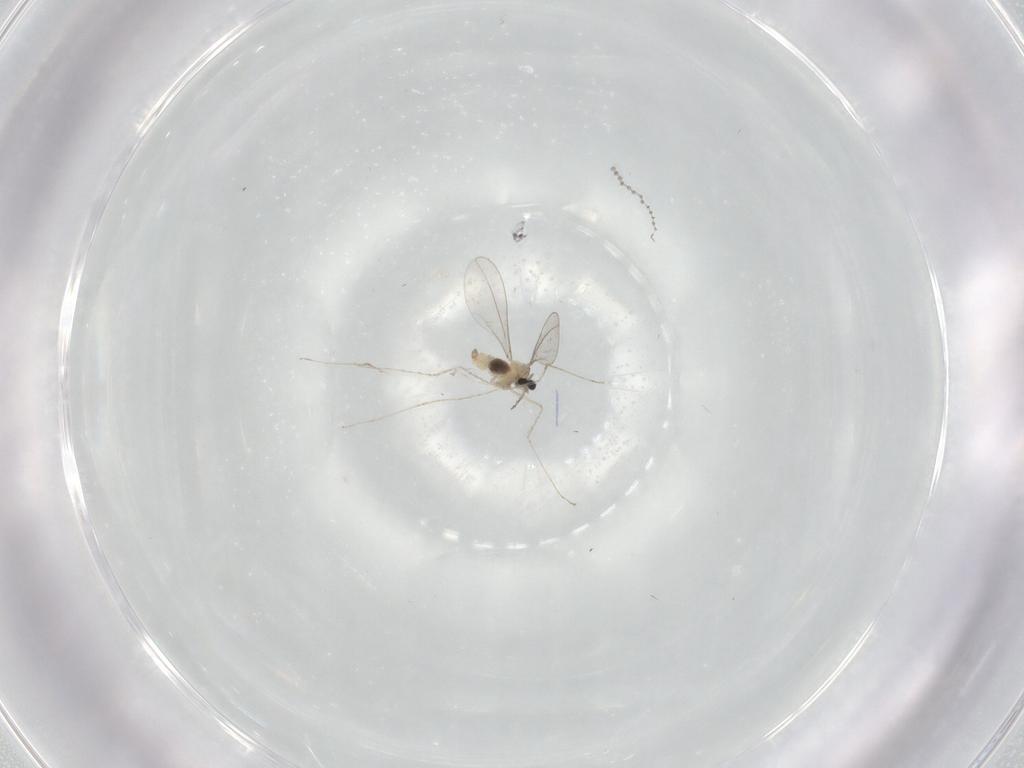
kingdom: Animalia
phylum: Arthropoda
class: Insecta
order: Diptera
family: Cecidomyiidae
